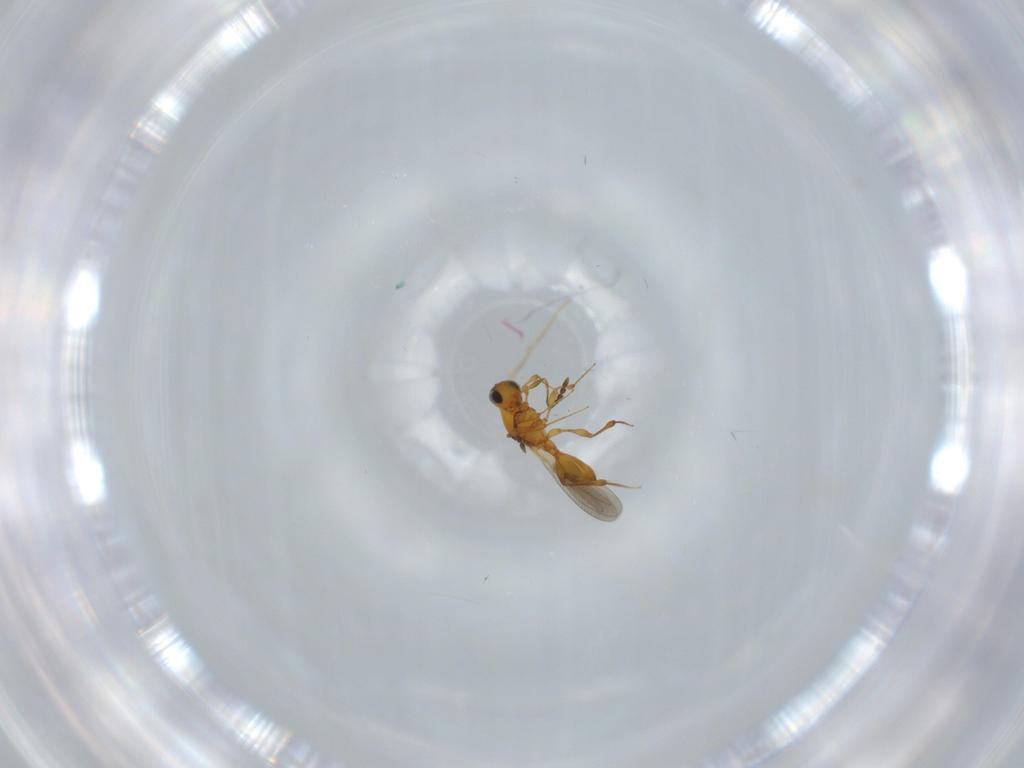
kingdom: Animalia
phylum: Arthropoda
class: Insecta
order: Hymenoptera
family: Platygastridae
